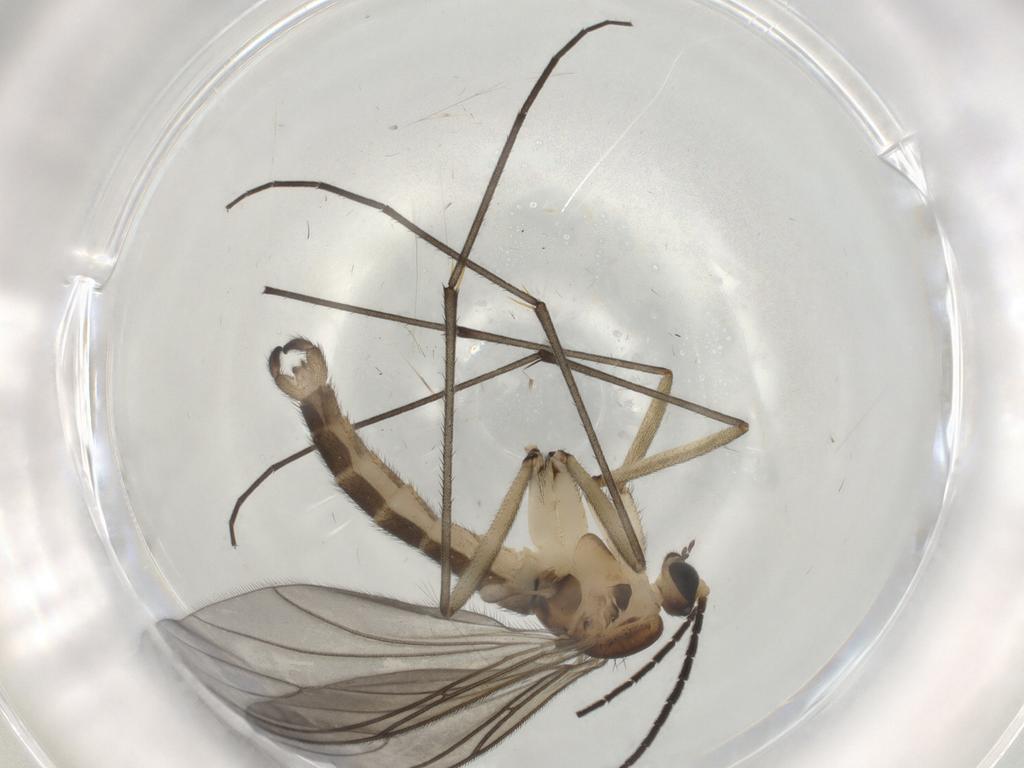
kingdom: Animalia
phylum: Arthropoda
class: Insecta
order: Diptera
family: Sciaridae
